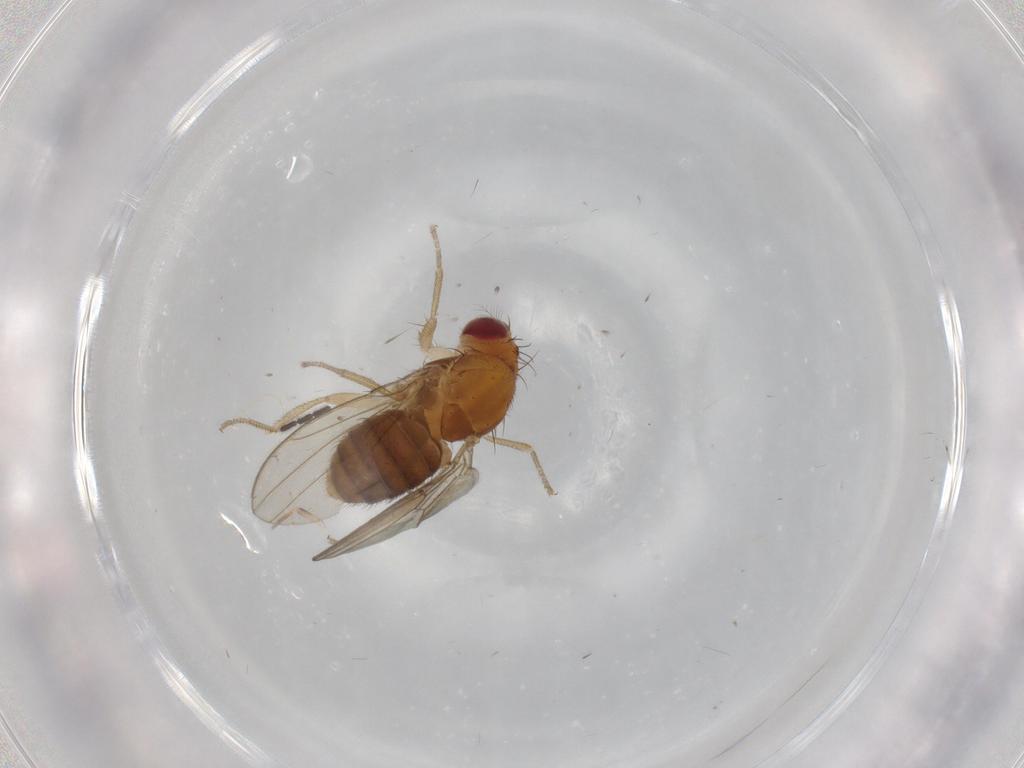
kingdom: Animalia
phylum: Arthropoda
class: Insecta
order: Diptera
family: Drosophilidae
